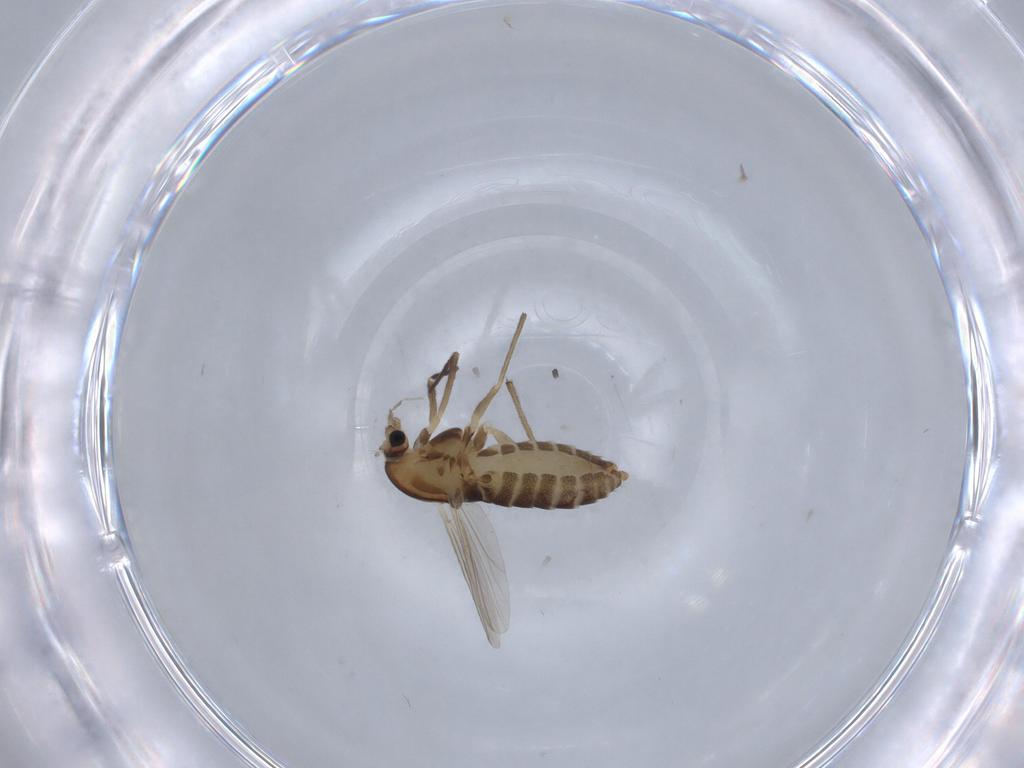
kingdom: Animalia
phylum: Arthropoda
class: Insecta
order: Diptera
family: Chironomidae
